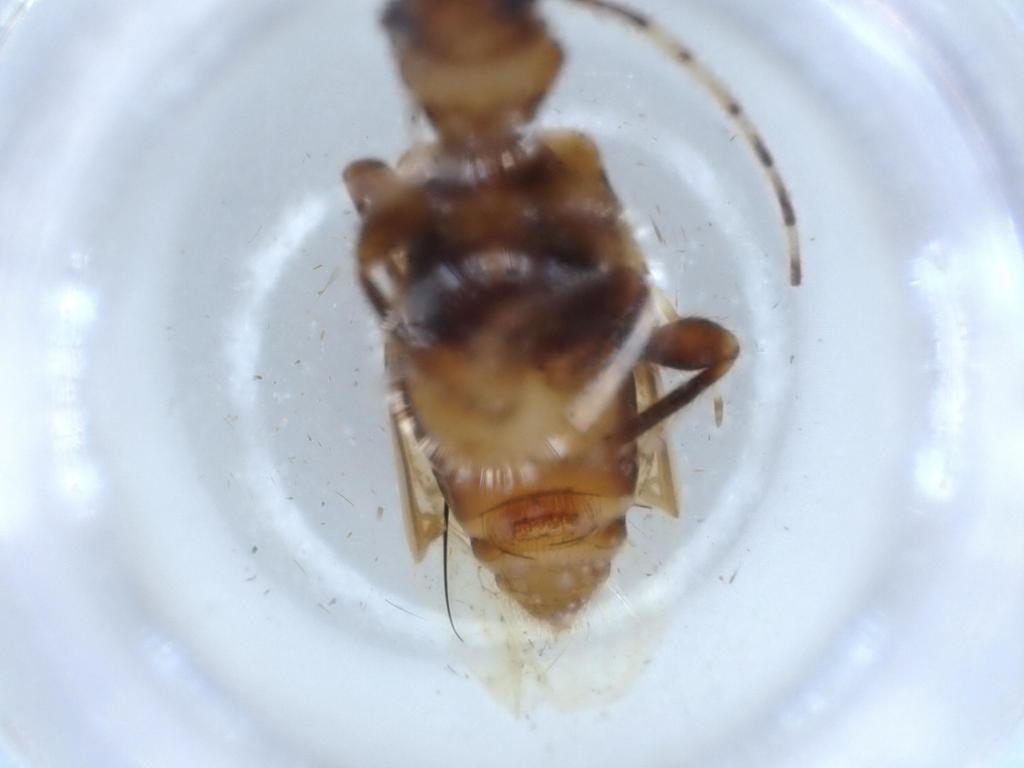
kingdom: Animalia
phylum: Arthropoda
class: Insecta
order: Coleoptera
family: Cerambycidae
